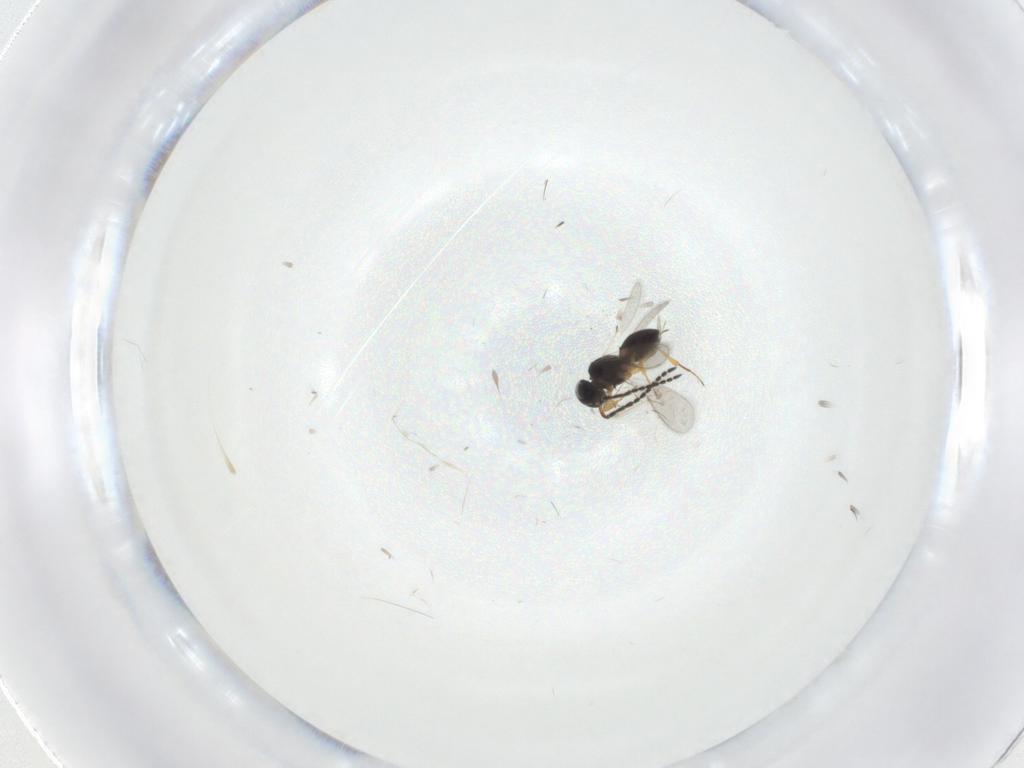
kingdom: Animalia
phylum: Arthropoda
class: Insecta
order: Hymenoptera
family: Scelionidae
